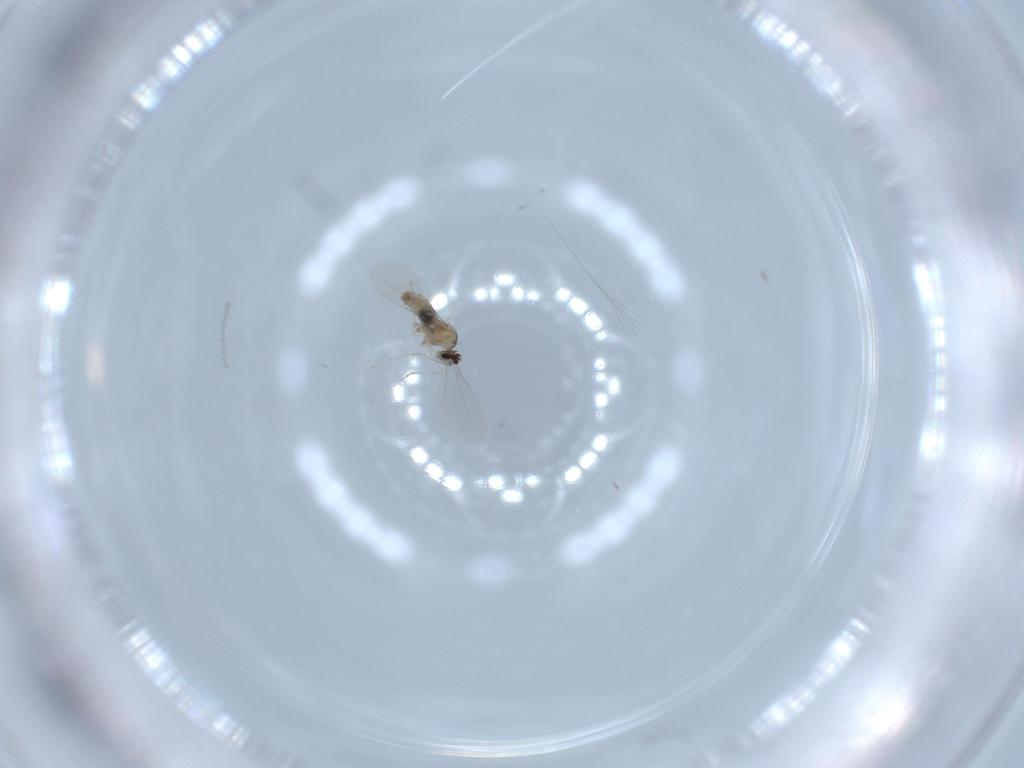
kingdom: Animalia
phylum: Arthropoda
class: Insecta
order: Diptera
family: Cecidomyiidae
